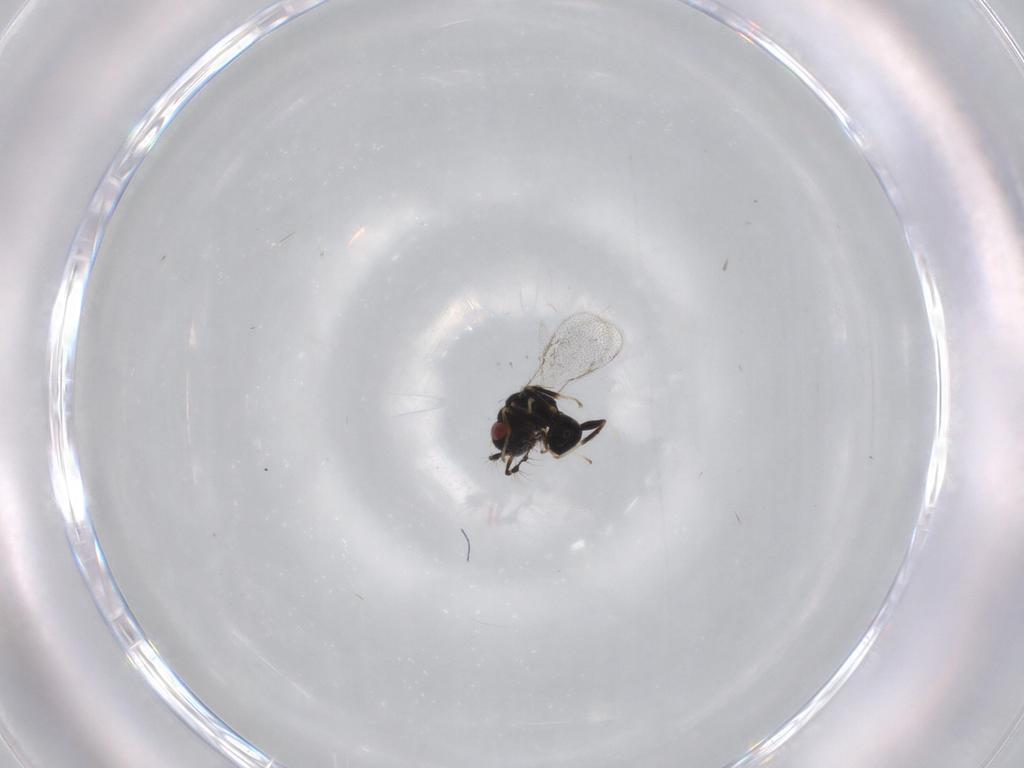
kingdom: Animalia
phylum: Arthropoda
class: Insecta
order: Hymenoptera
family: Eurytomidae
